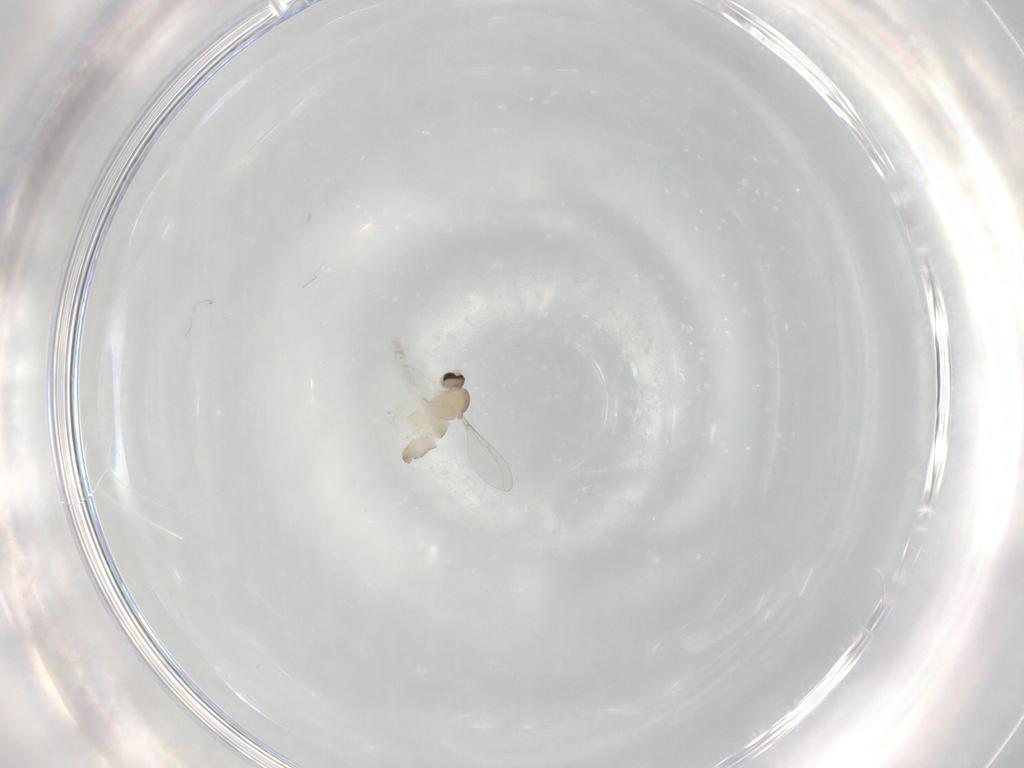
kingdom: Animalia
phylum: Arthropoda
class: Insecta
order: Diptera
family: Cecidomyiidae
